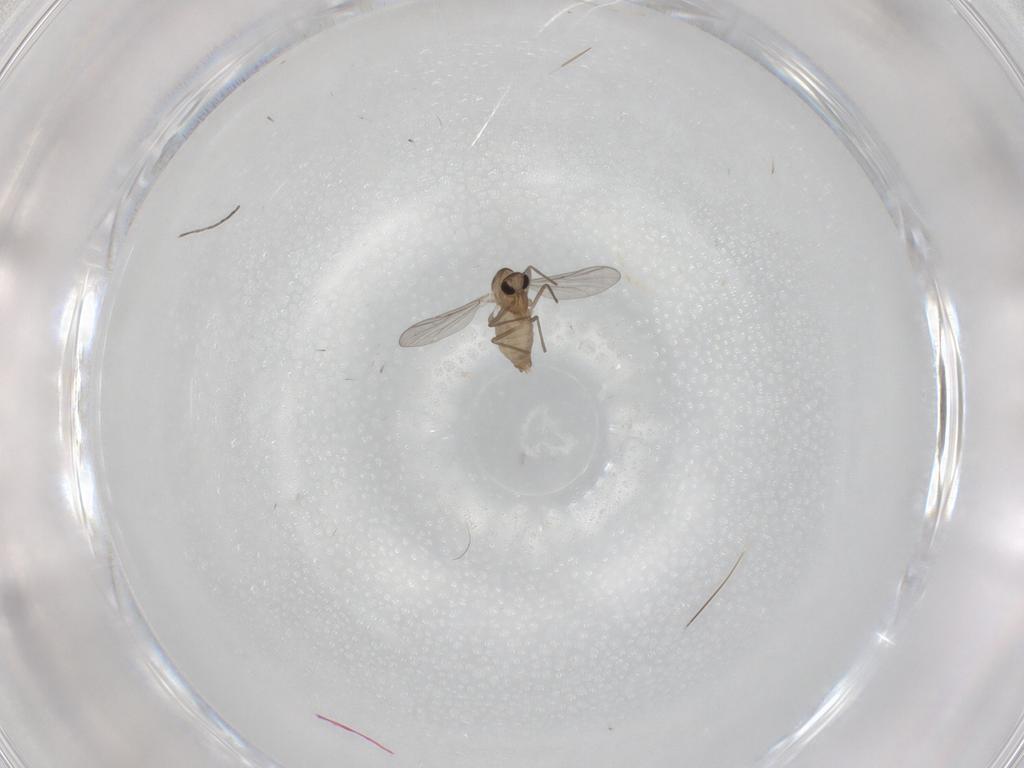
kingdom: Animalia
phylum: Arthropoda
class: Insecta
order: Diptera
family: Chironomidae
